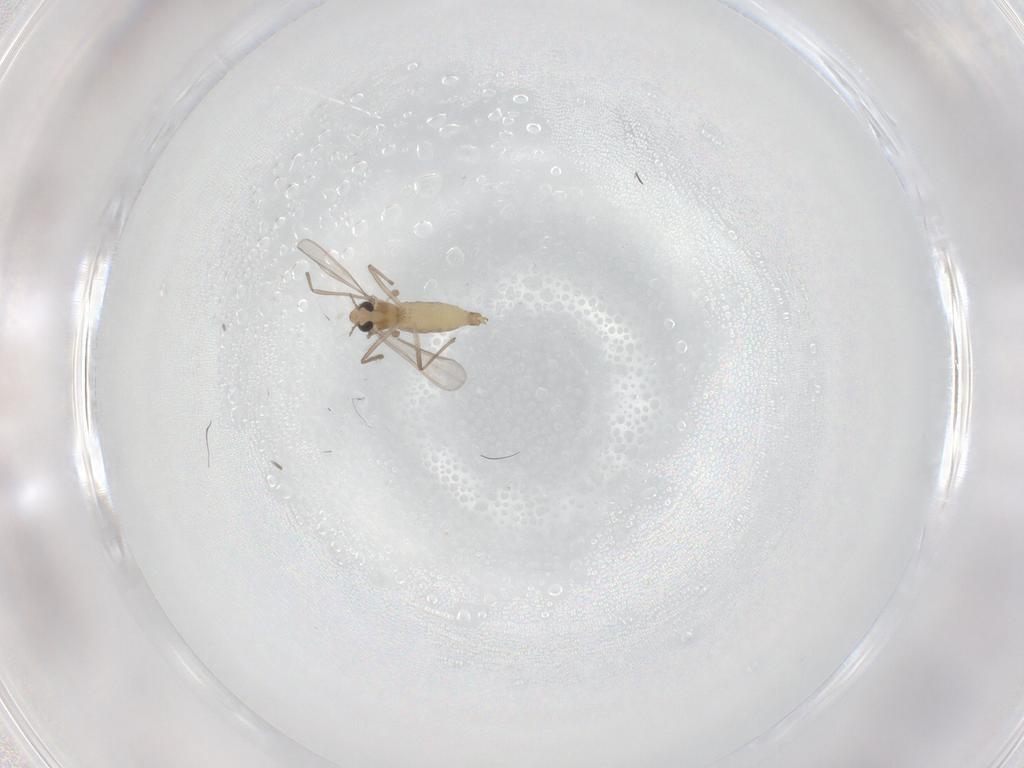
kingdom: Animalia
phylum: Arthropoda
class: Insecta
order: Diptera
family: Chironomidae
